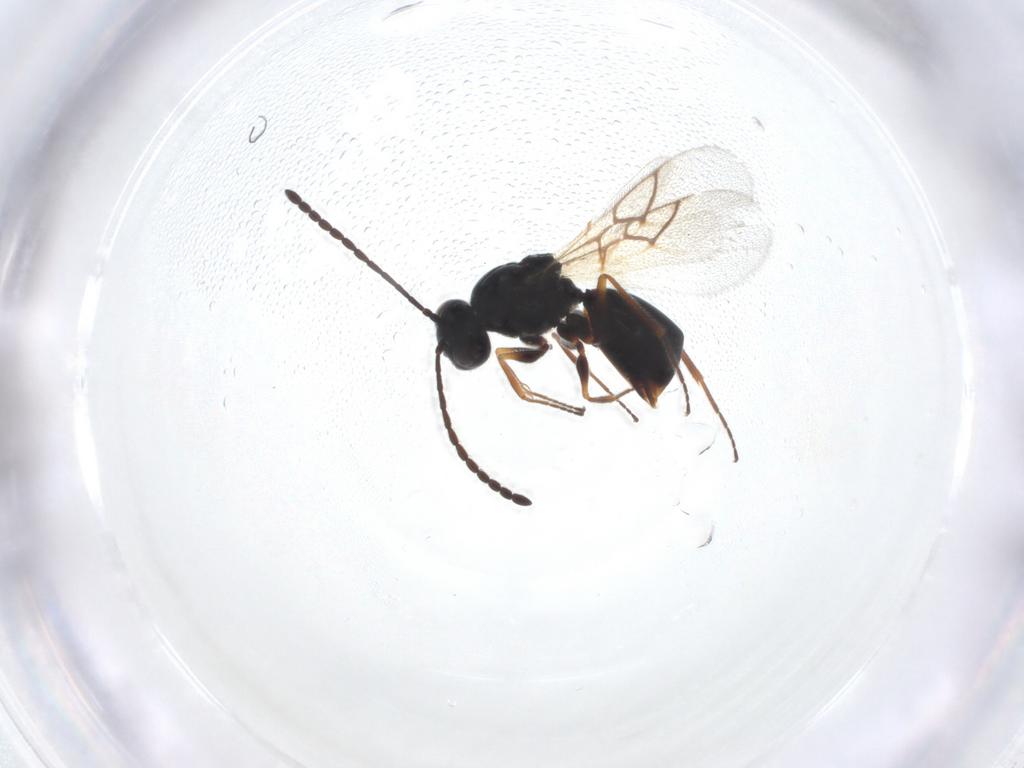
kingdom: Animalia
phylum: Arthropoda
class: Insecta
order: Hymenoptera
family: Figitidae
